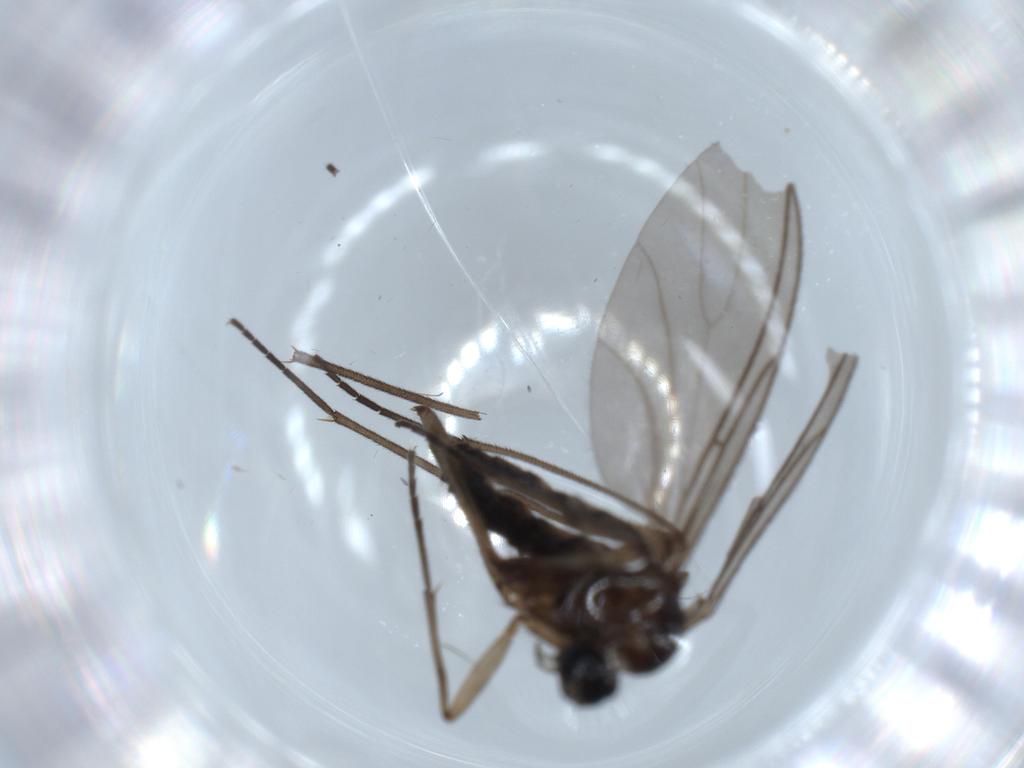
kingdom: Animalia
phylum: Arthropoda
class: Insecta
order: Diptera
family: Sciaridae
